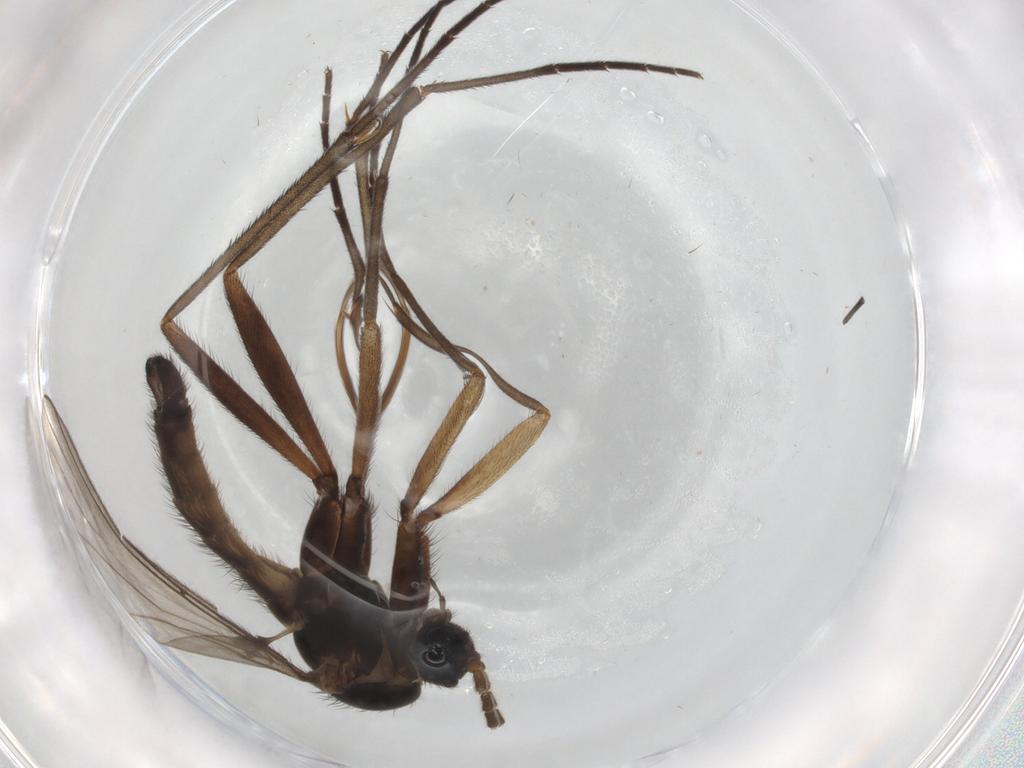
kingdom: Animalia
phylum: Arthropoda
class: Insecta
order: Diptera
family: Sciaridae
